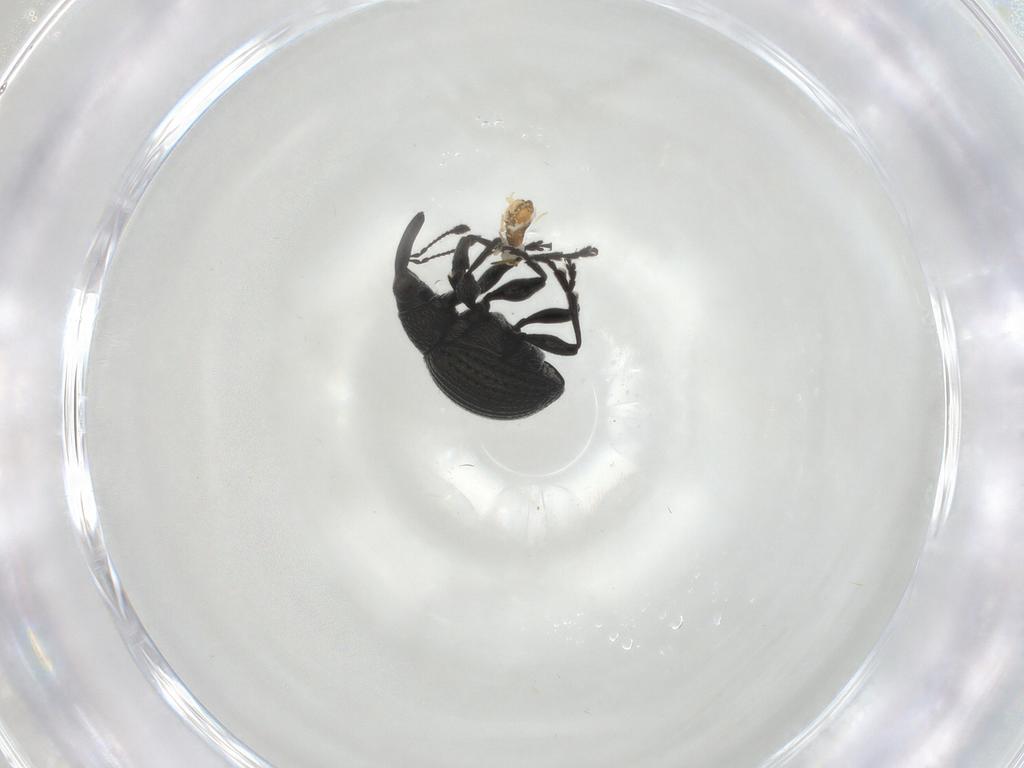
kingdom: Animalia
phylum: Arthropoda
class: Insecta
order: Coleoptera
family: Brentidae
